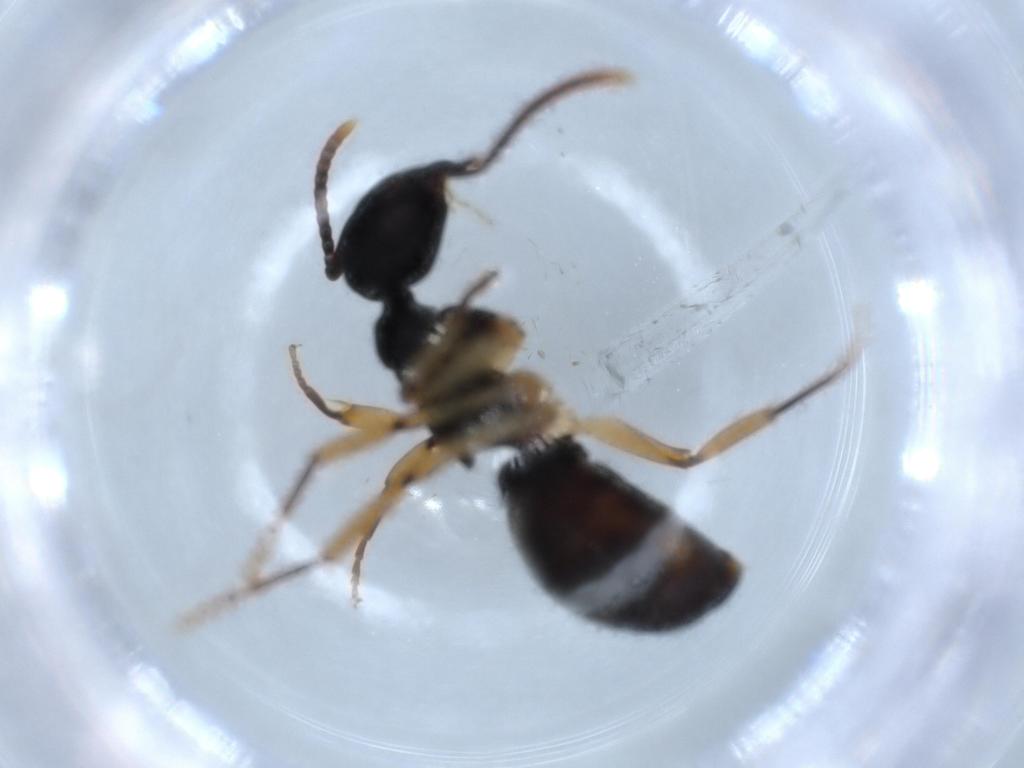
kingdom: Animalia
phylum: Arthropoda
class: Insecta
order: Hymenoptera
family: Formicidae
